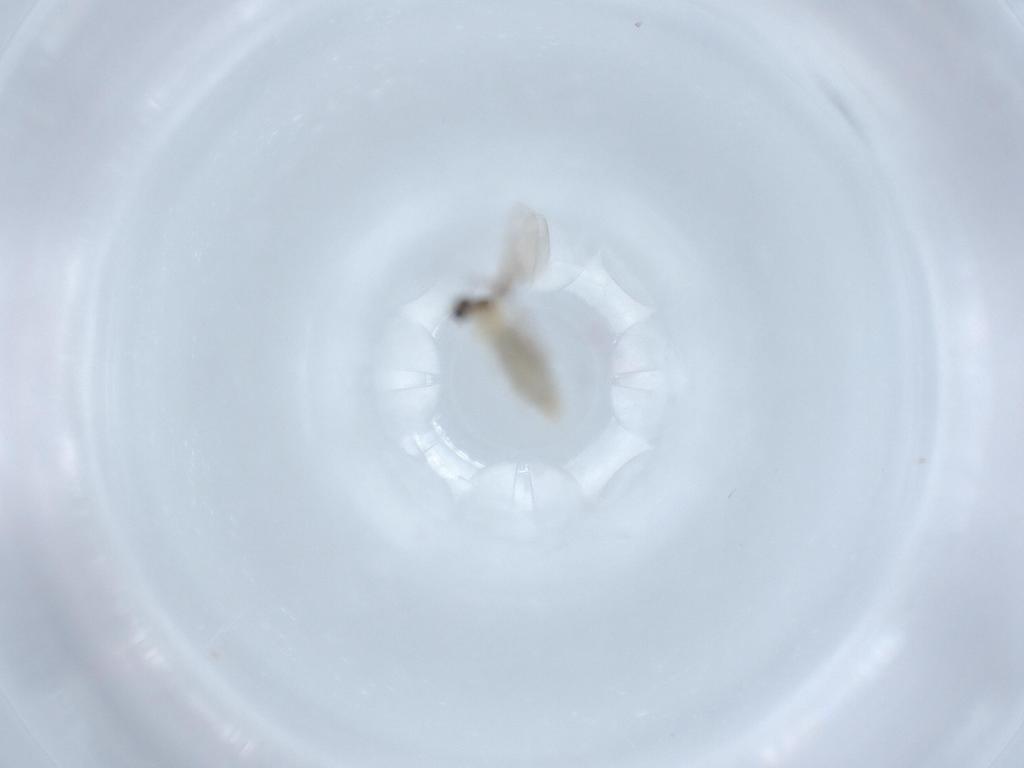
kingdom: Animalia
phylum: Arthropoda
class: Insecta
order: Diptera
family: Chironomidae
